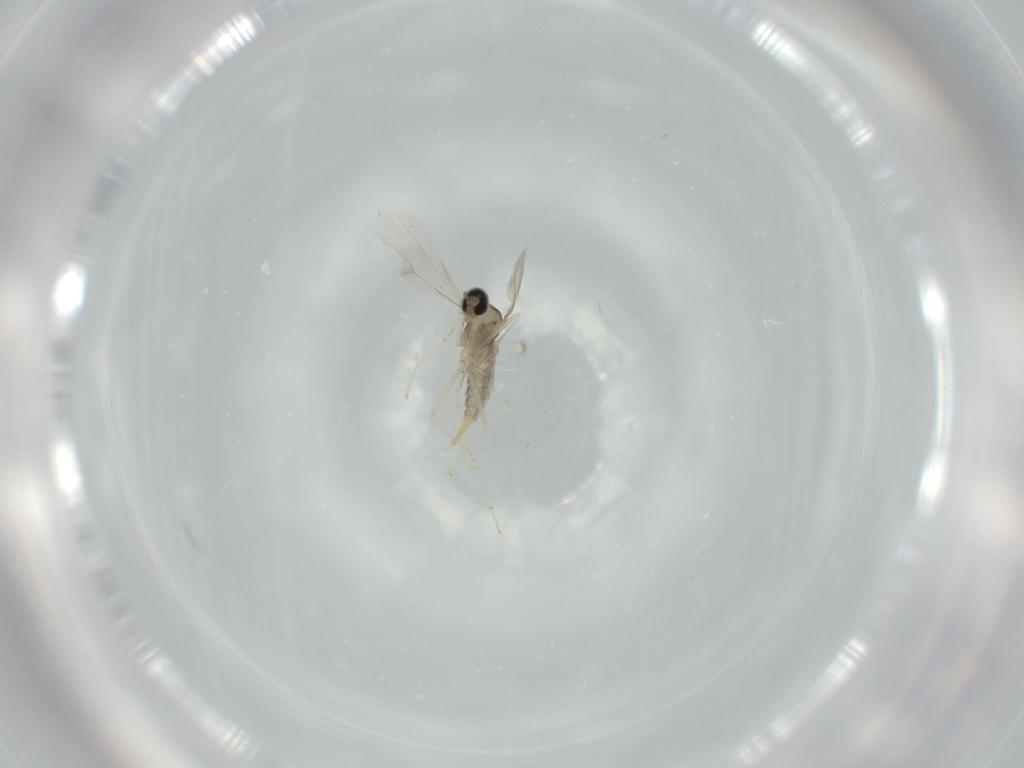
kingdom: Animalia
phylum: Arthropoda
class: Insecta
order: Diptera
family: Cecidomyiidae
